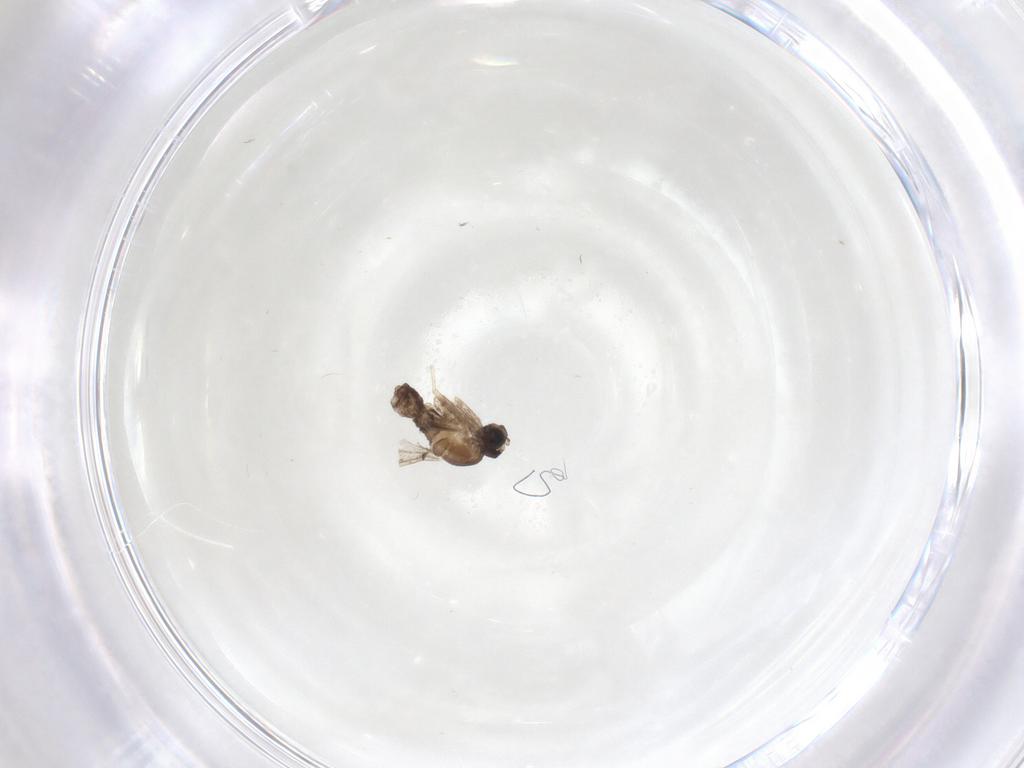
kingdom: Animalia
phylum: Arthropoda
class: Insecta
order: Diptera
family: Cecidomyiidae
